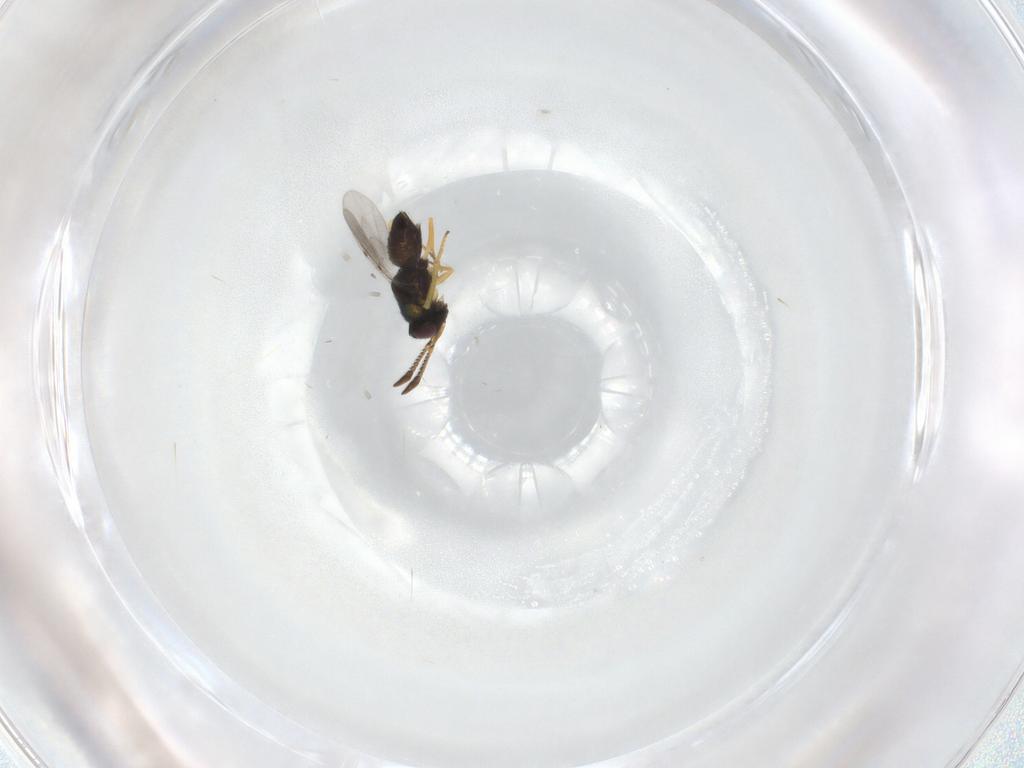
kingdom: Animalia
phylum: Arthropoda
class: Insecta
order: Hymenoptera
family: Encyrtidae
